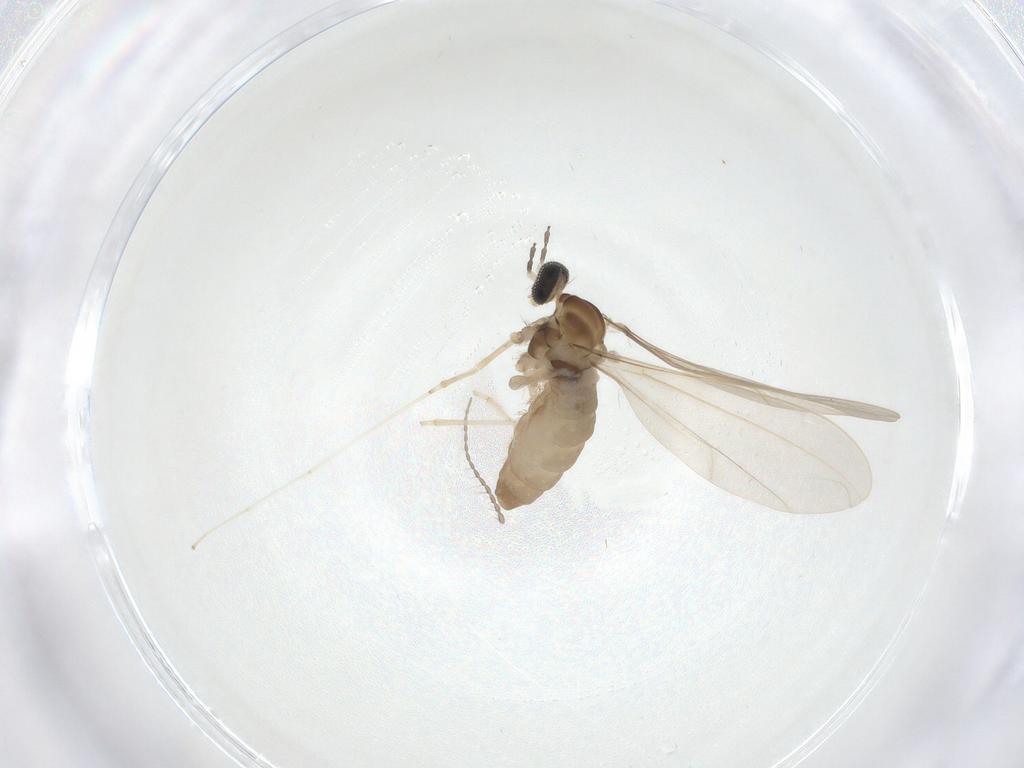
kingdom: Animalia
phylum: Arthropoda
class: Insecta
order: Diptera
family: Limoniidae
